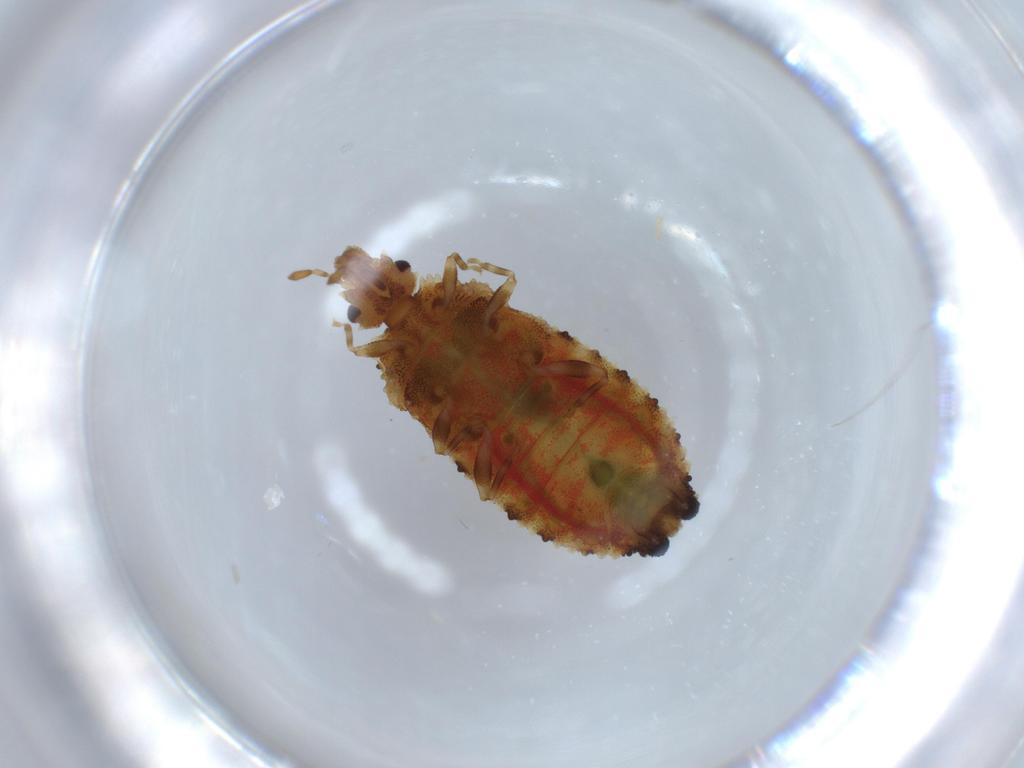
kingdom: Animalia
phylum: Arthropoda
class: Insecta
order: Hemiptera
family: Aradidae
